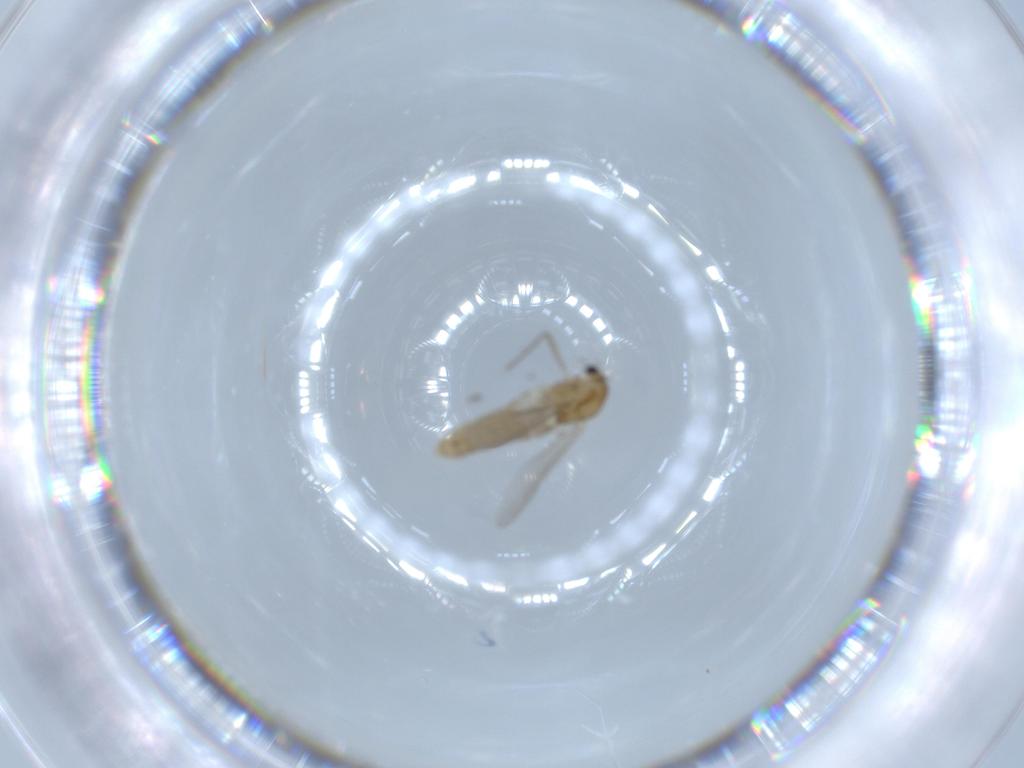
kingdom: Animalia
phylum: Arthropoda
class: Insecta
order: Diptera
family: Chironomidae
